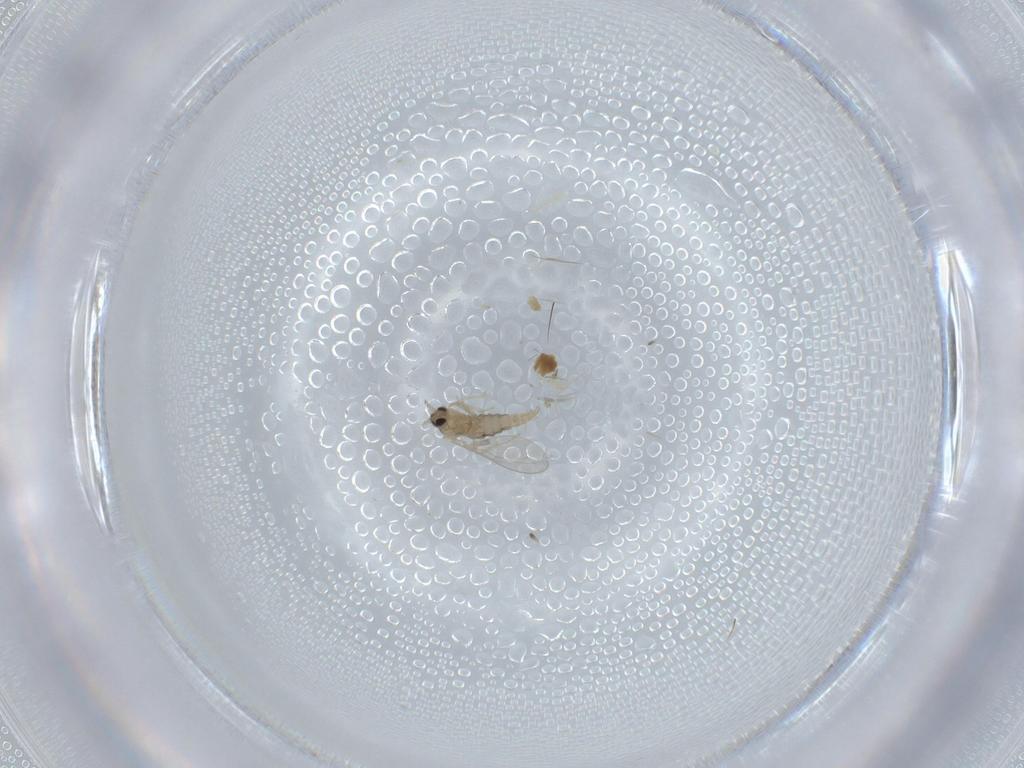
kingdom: Animalia
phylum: Arthropoda
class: Insecta
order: Diptera
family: Cecidomyiidae
